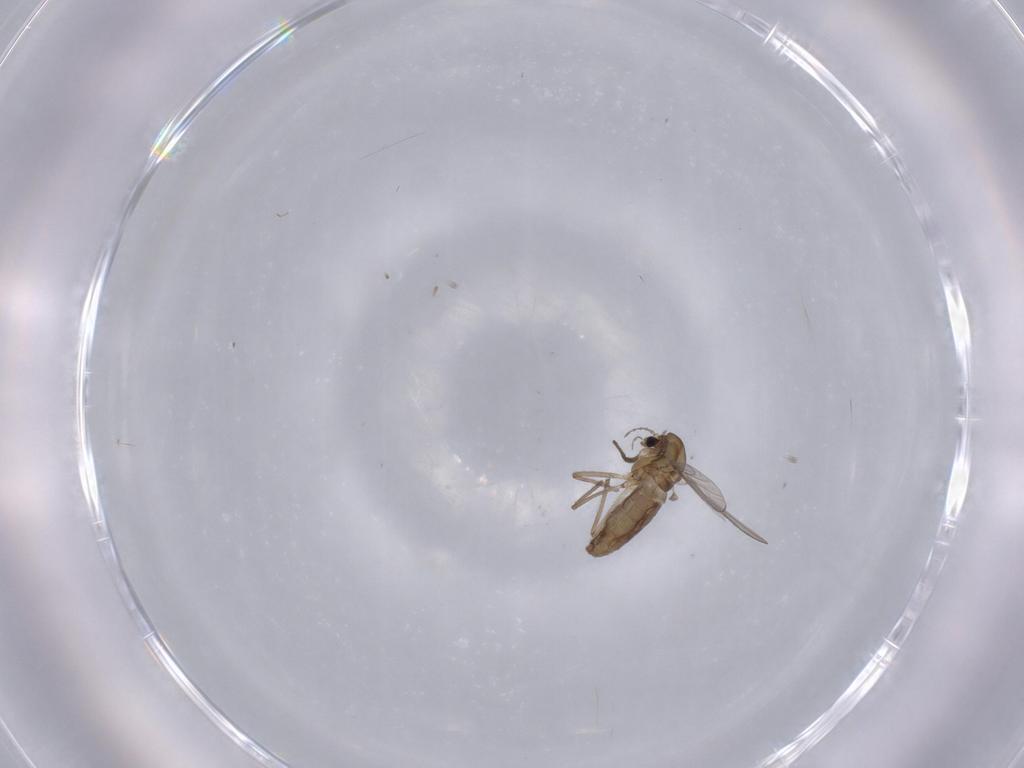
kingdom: Animalia
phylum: Arthropoda
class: Insecta
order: Diptera
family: Chironomidae
